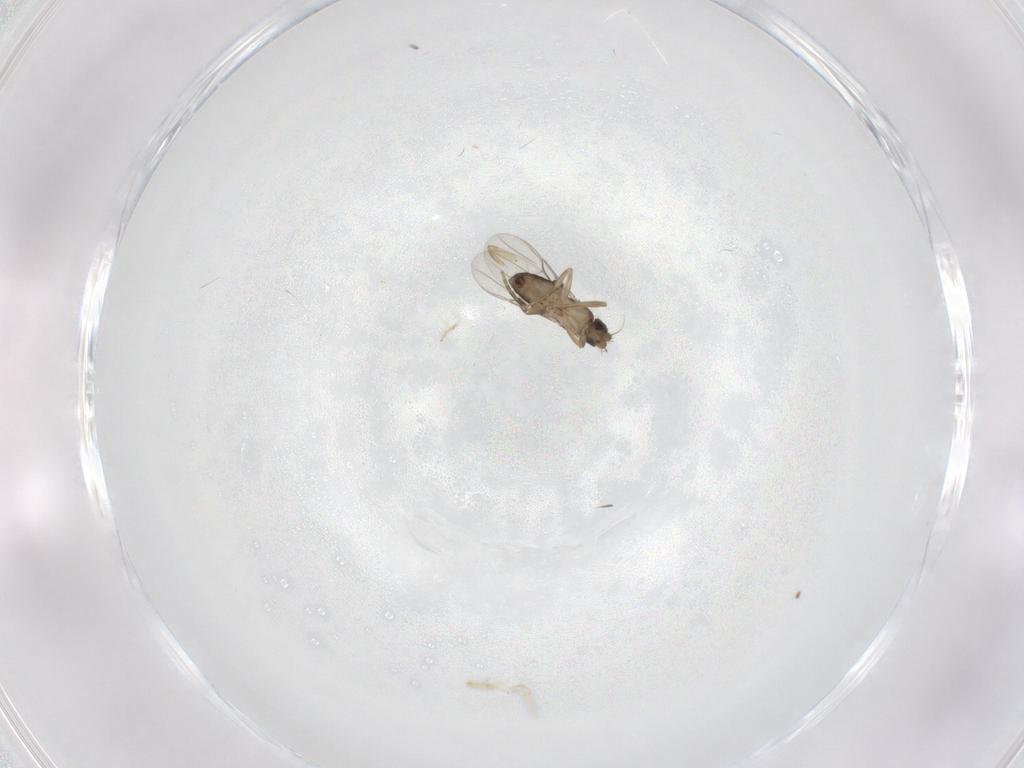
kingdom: Animalia
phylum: Arthropoda
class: Insecta
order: Diptera
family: Phoridae
